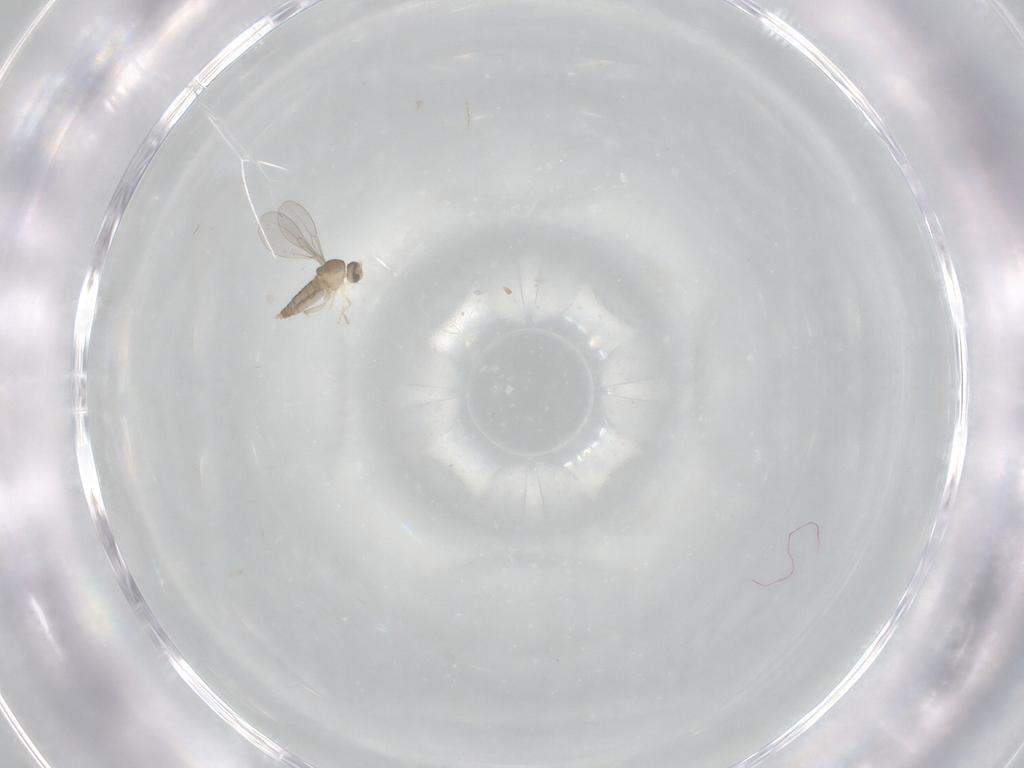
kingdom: Animalia
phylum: Arthropoda
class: Insecta
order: Diptera
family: Cecidomyiidae
